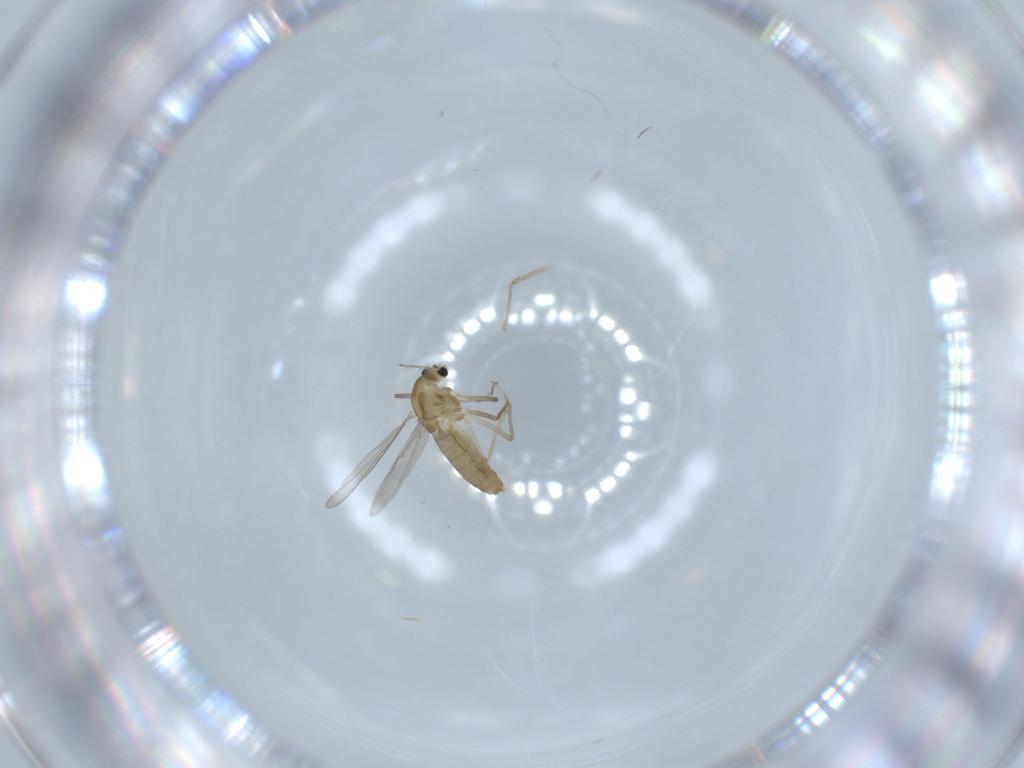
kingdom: Animalia
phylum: Arthropoda
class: Insecta
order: Diptera
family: Chironomidae
